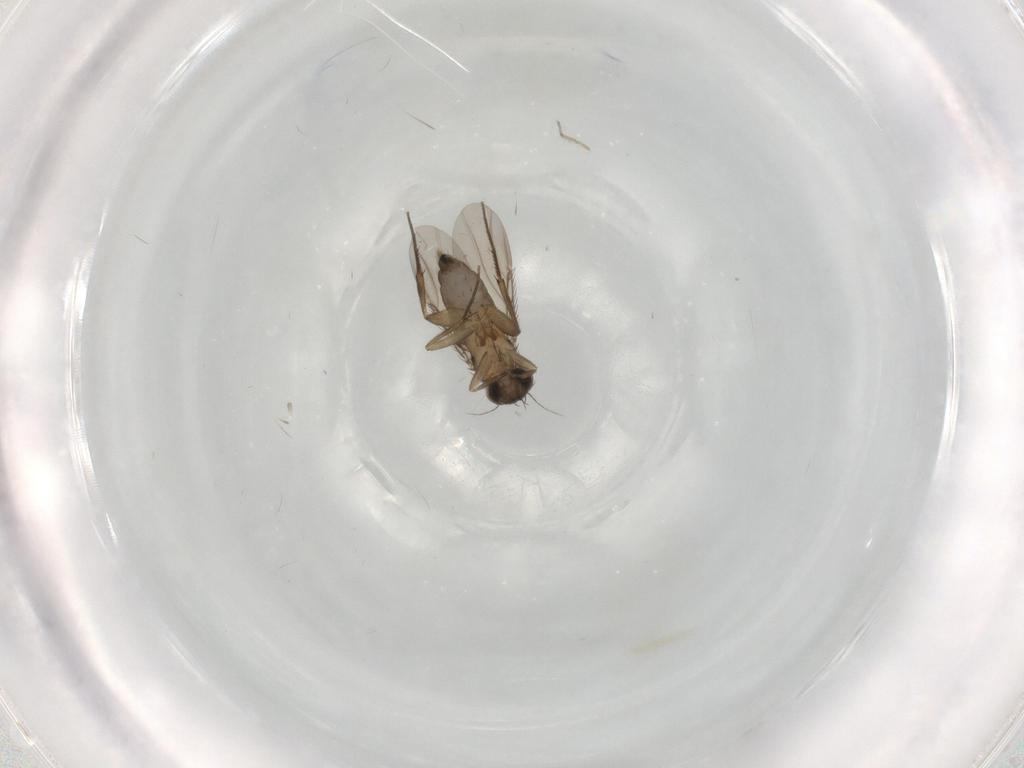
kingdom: Animalia
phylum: Arthropoda
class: Insecta
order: Diptera
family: Phoridae
